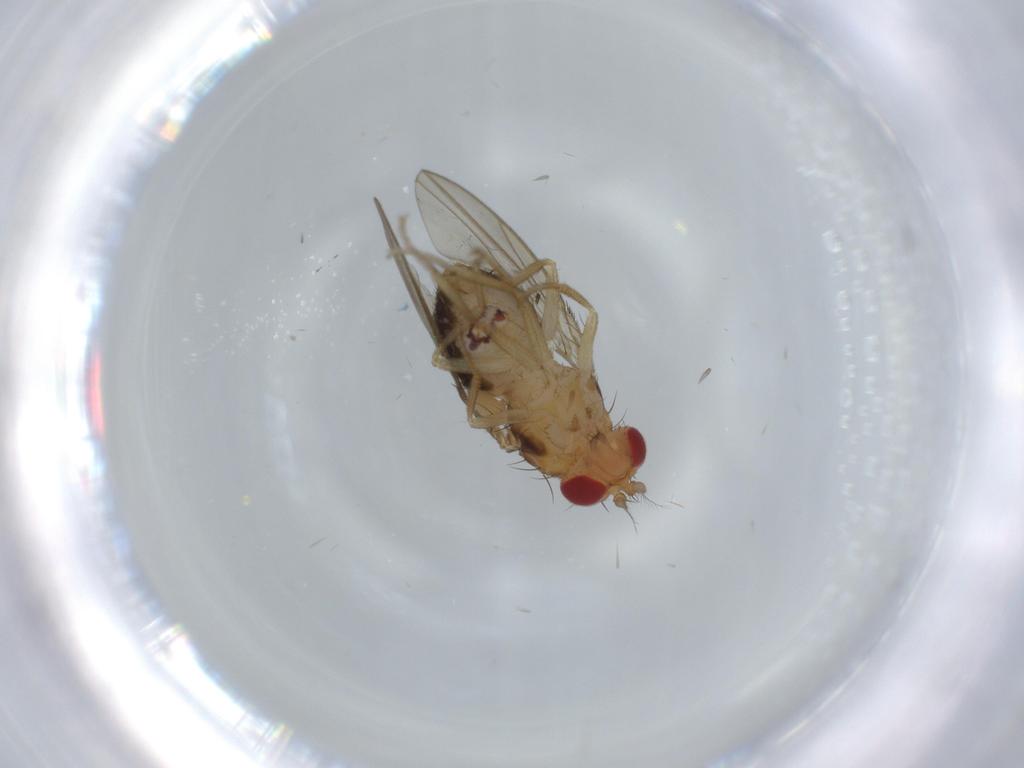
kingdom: Animalia
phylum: Arthropoda
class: Insecta
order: Diptera
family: Drosophilidae
